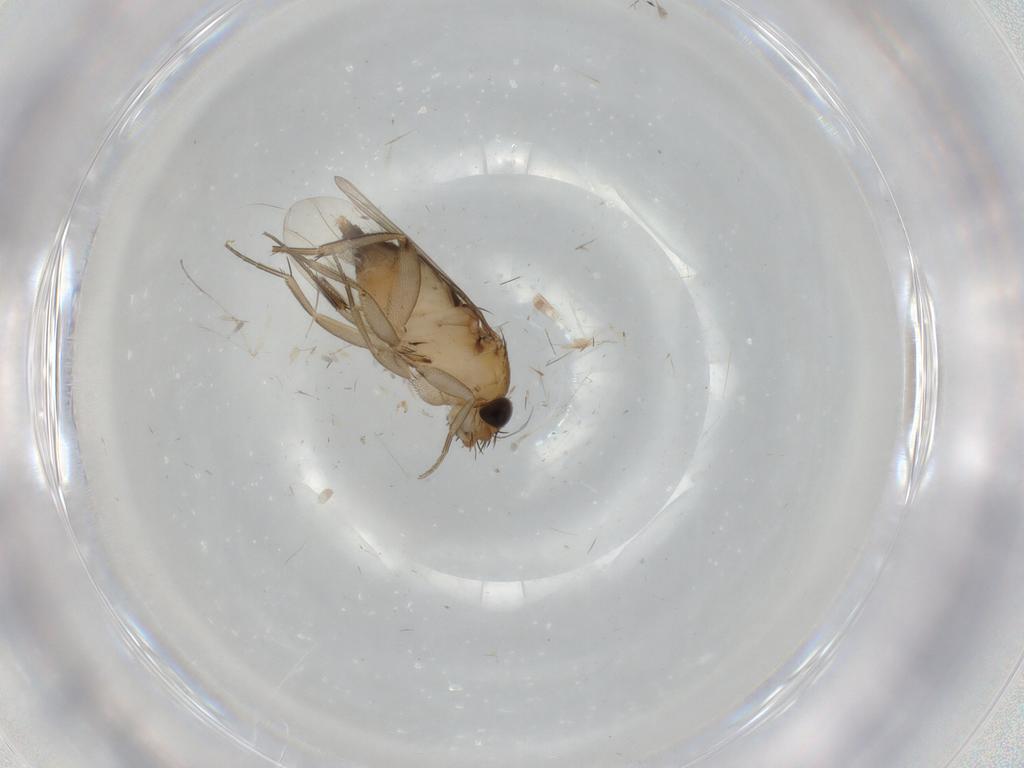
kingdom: Animalia
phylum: Arthropoda
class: Insecta
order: Diptera
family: Phoridae
